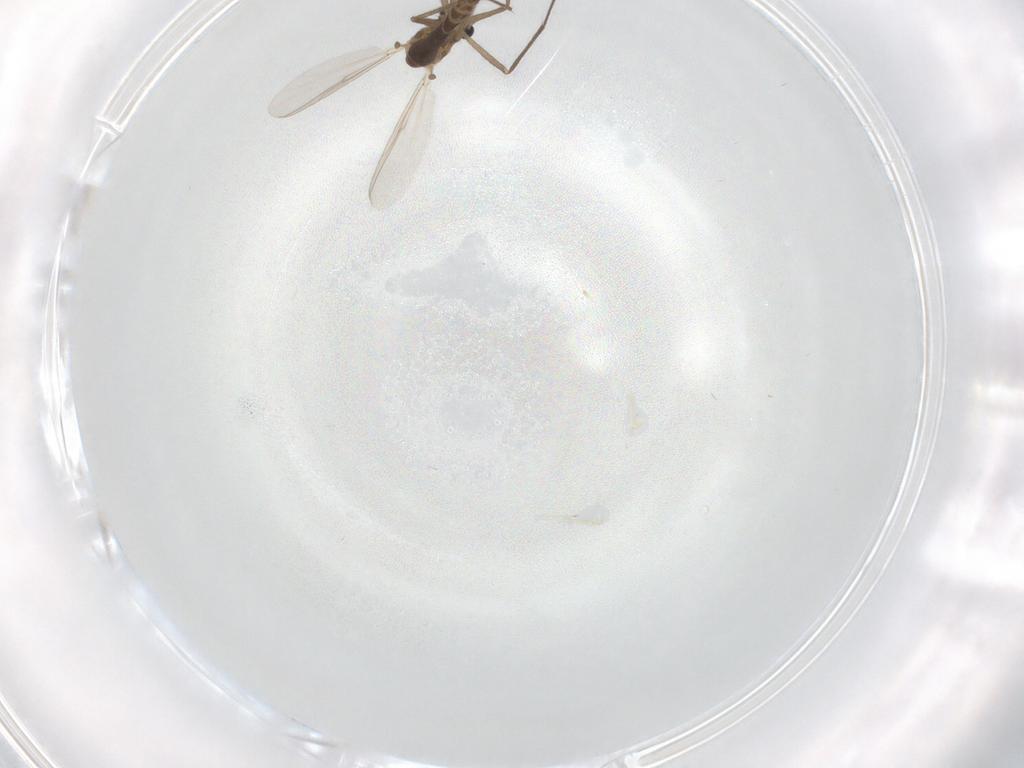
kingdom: Animalia
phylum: Arthropoda
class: Insecta
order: Diptera
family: Chironomidae
